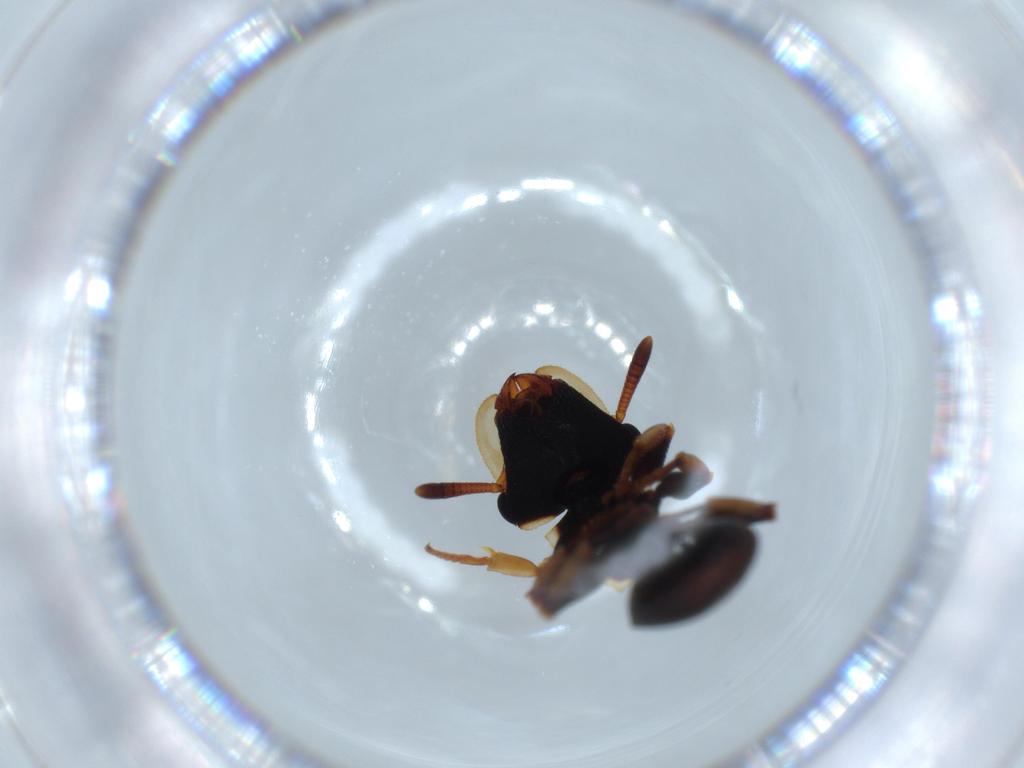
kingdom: Animalia
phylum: Arthropoda
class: Insecta
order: Hymenoptera
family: Formicidae
